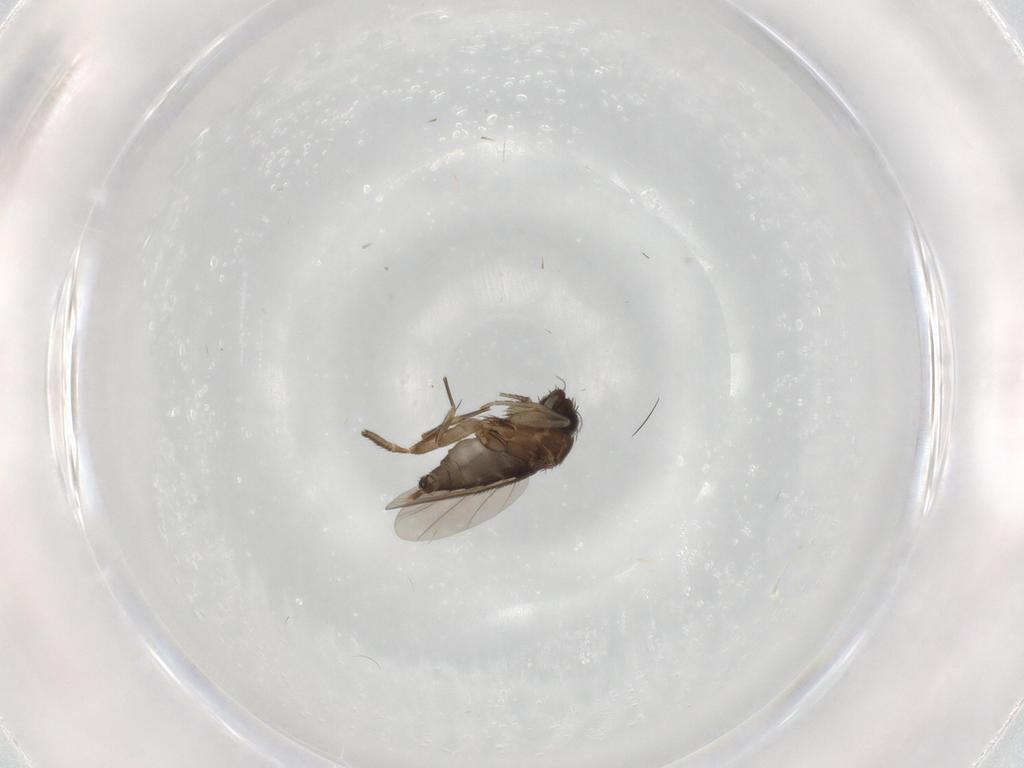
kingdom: Animalia
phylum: Arthropoda
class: Insecta
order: Diptera
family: Phoridae
